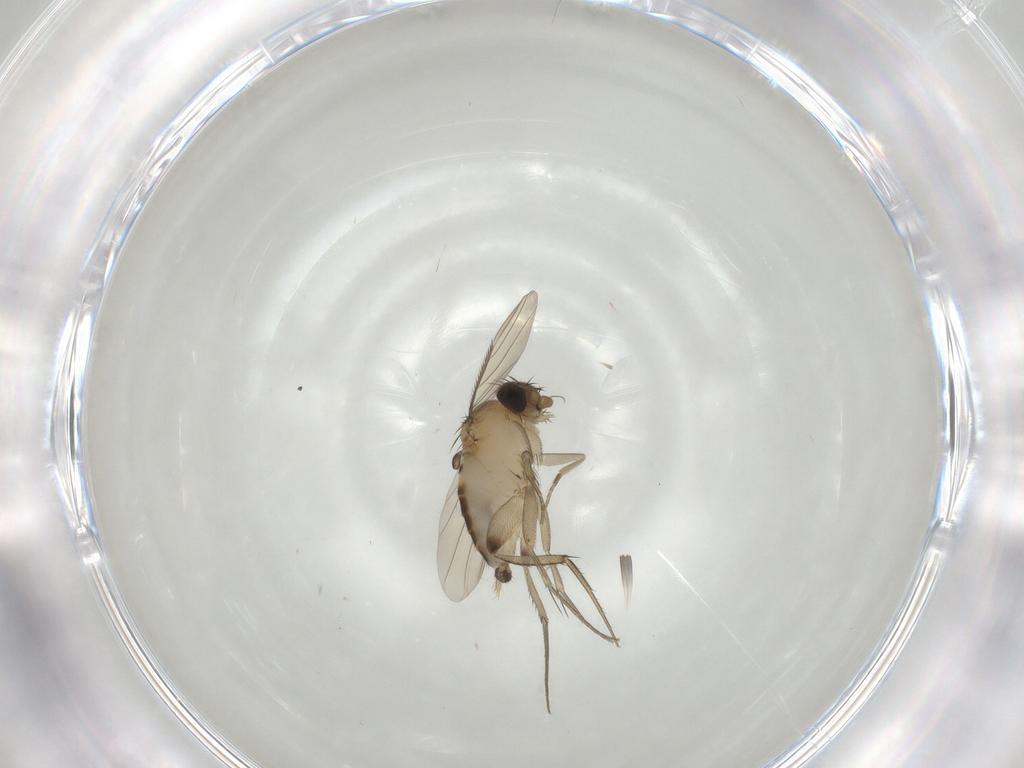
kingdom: Animalia
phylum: Arthropoda
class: Insecta
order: Diptera
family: Phoridae
